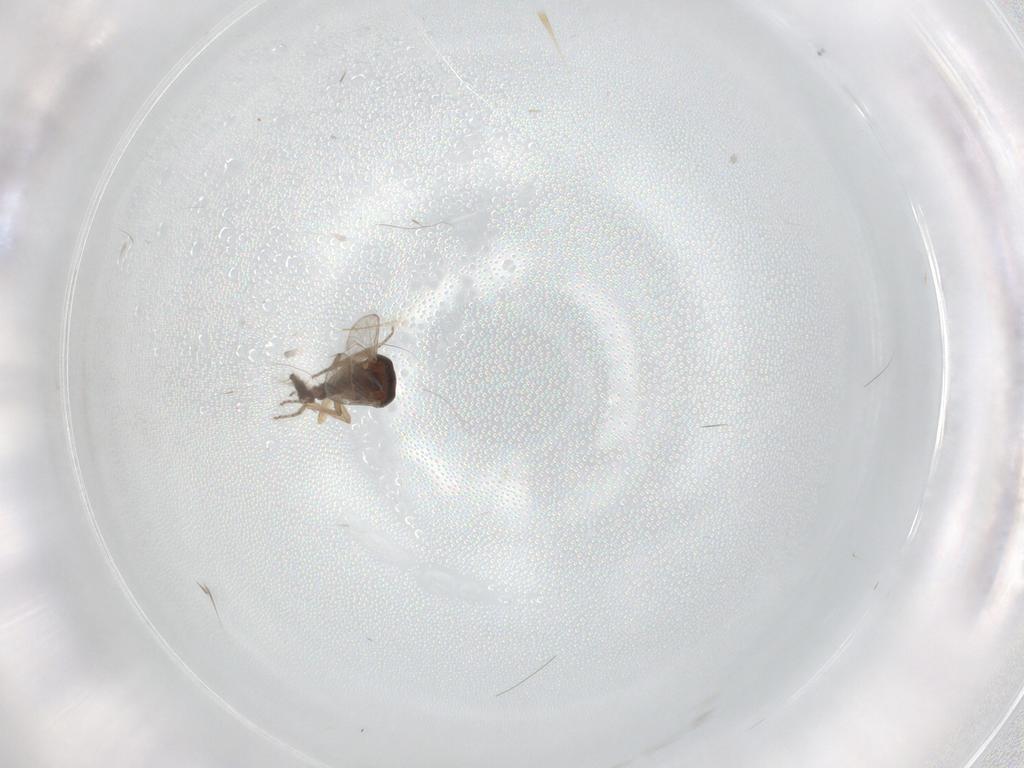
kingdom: Animalia
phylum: Arthropoda
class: Insecta
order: Diptera
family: Ceratopogonidae
